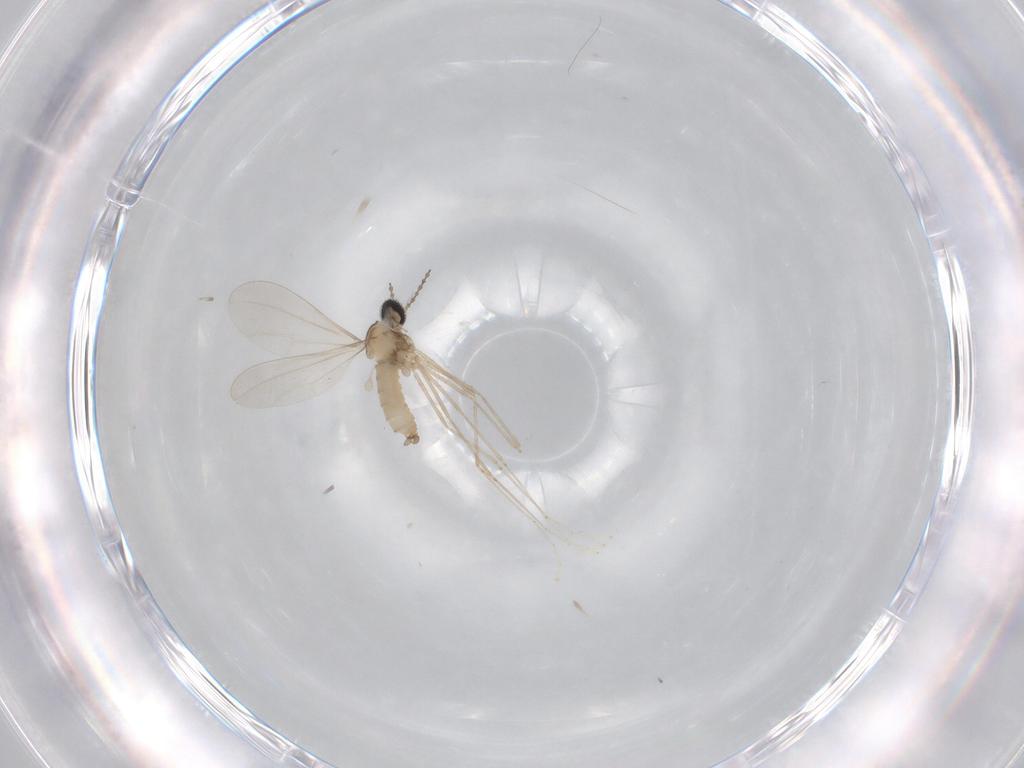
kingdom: Animalia
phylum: Arthropoda
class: Insecta
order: Diptera
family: Cecidomyiidae
